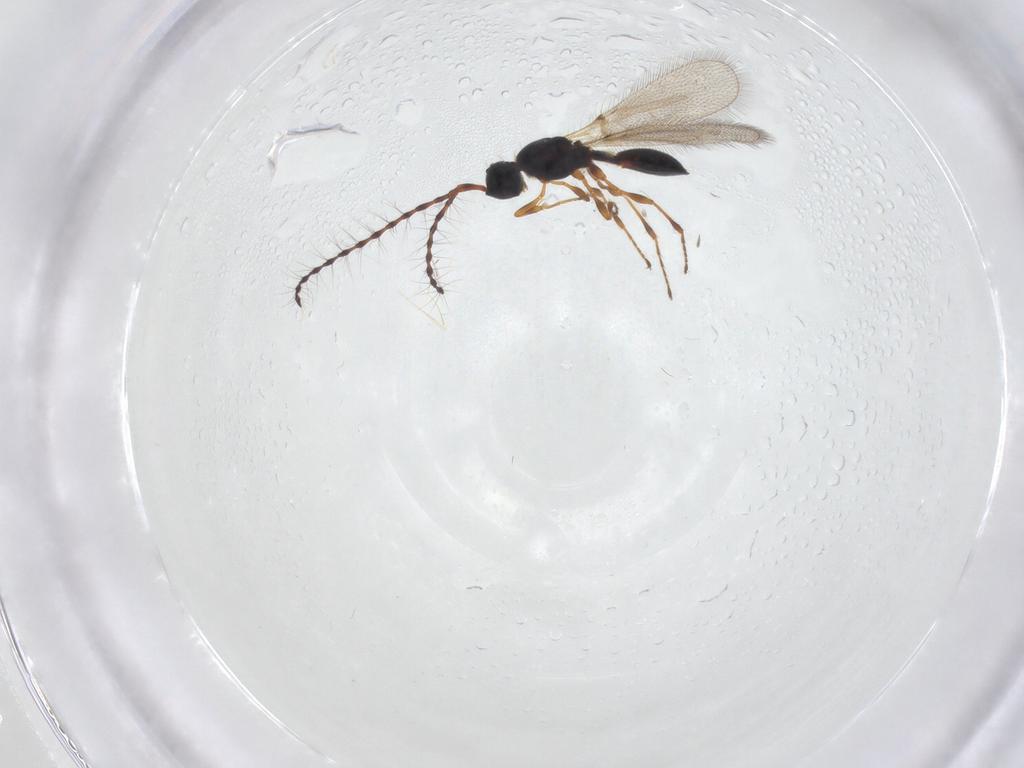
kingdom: Animalia
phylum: Arthropoda
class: Insecta
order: Hymenoptera
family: Diapriidae
